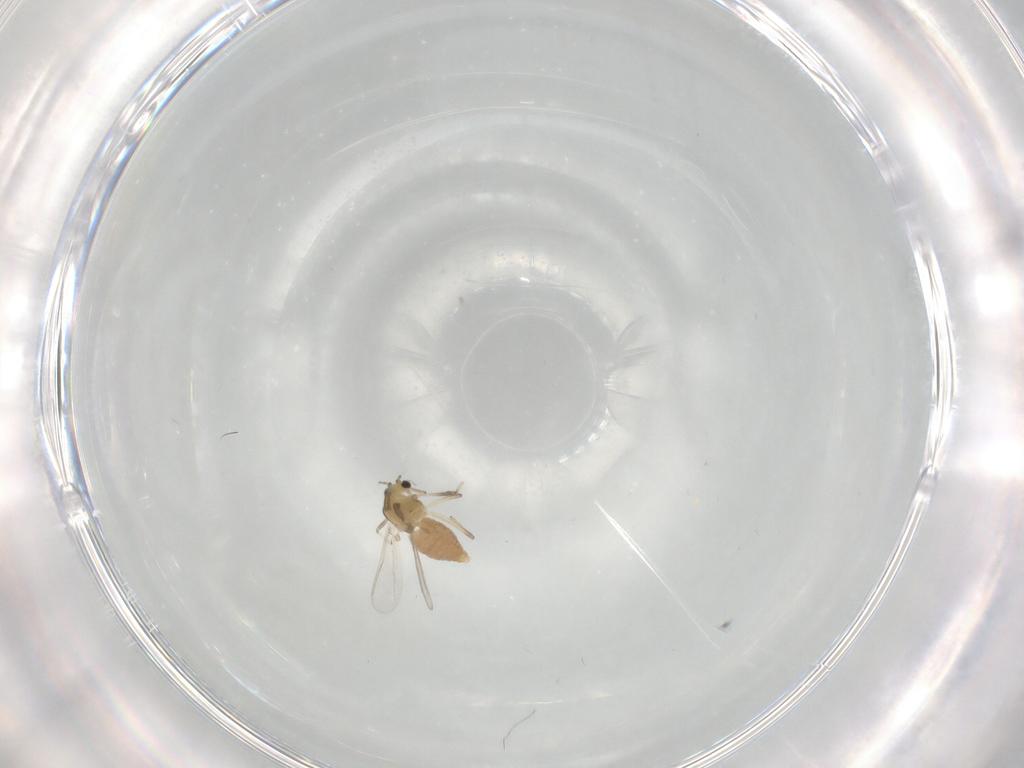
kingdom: Animalia
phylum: Arthropoda
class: Insecta
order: Diptera
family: Chironomidae
